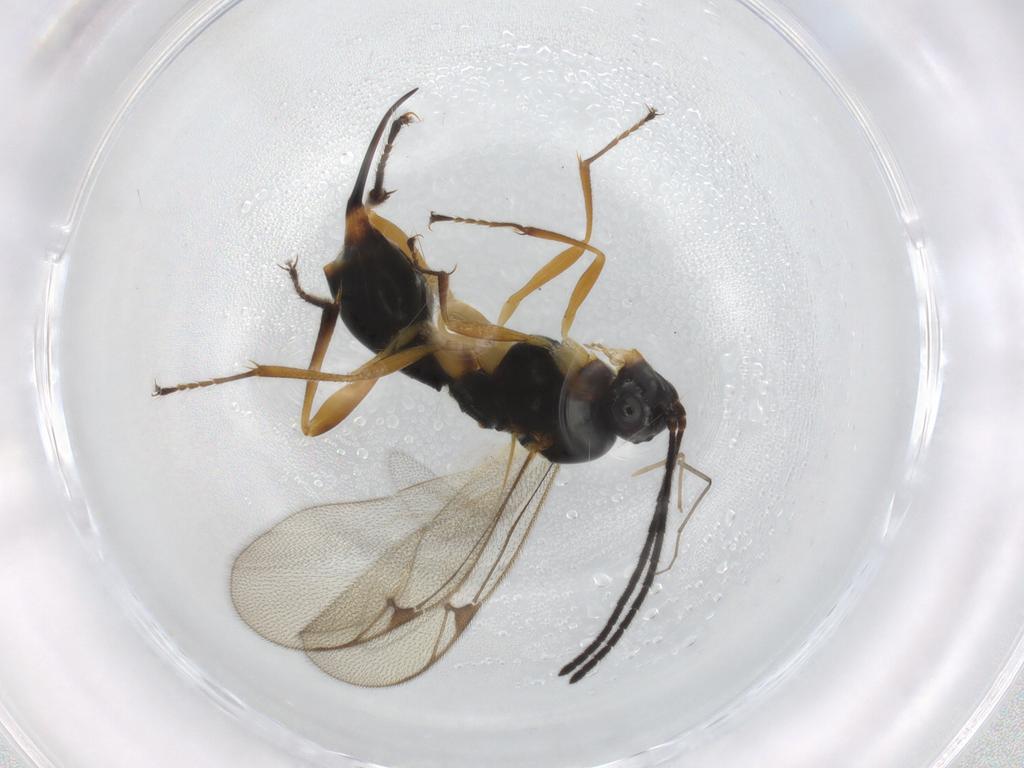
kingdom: Animalia
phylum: Arthropoda
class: Insecta
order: Hymenoptera
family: Proctotrupidae
